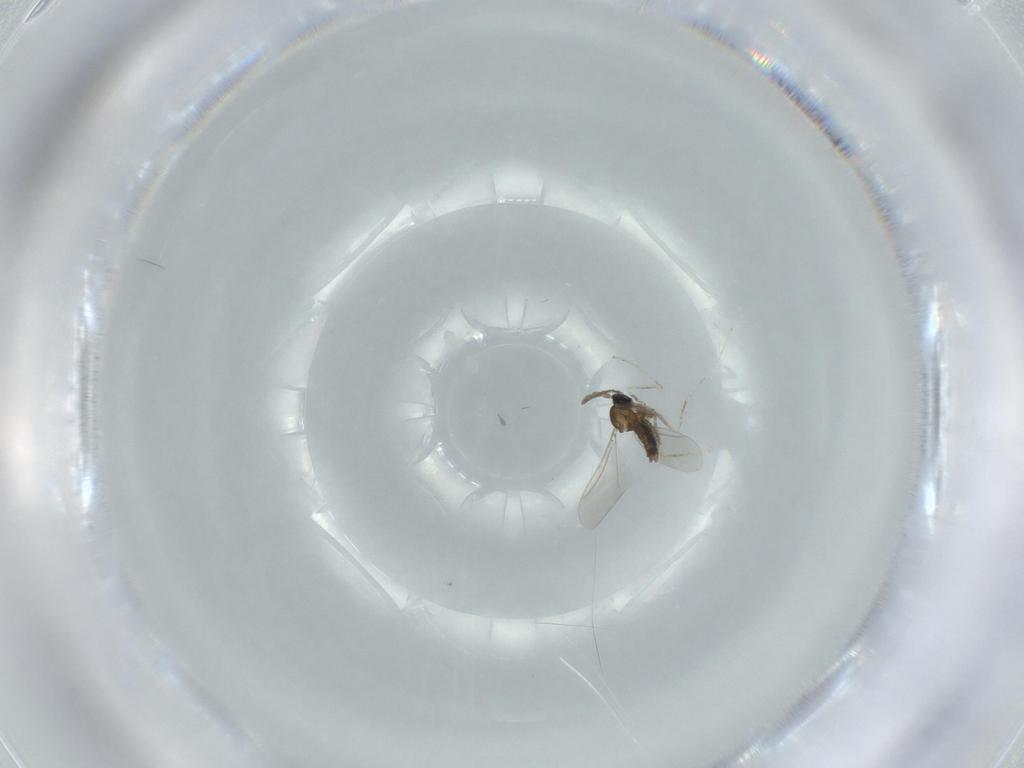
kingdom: Animalia
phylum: Arthropoda
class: Insecta
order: Diptera
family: Cecidomyiidae
